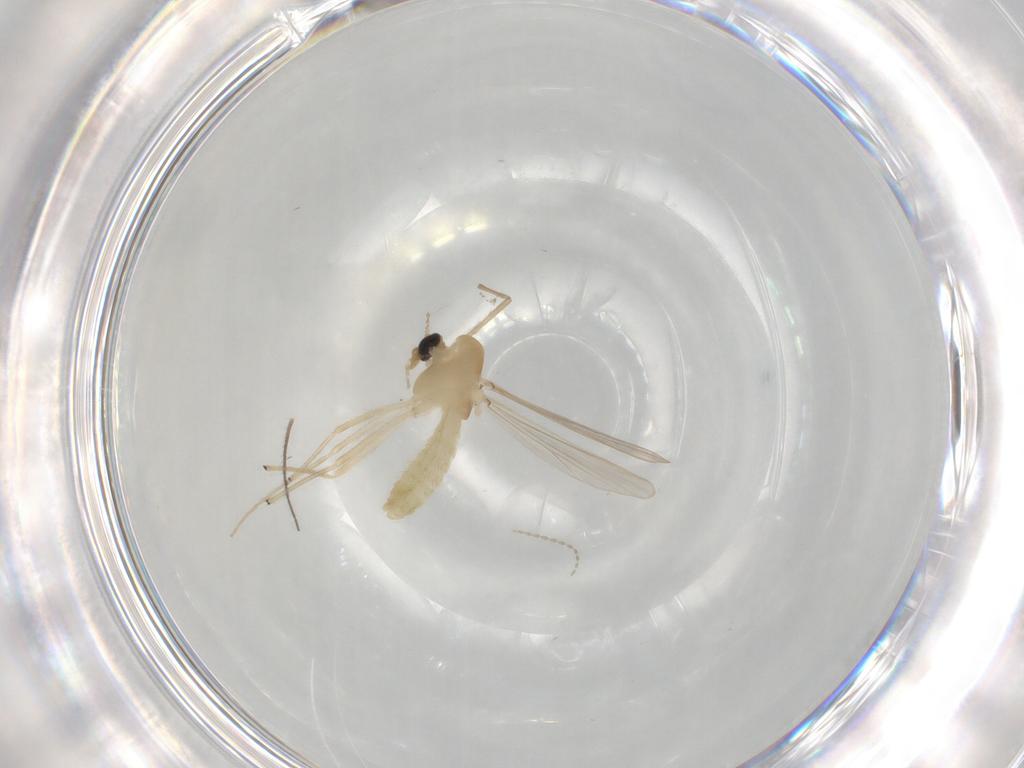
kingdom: Animalia
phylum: Arthropoda
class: Insecta
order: Diptera
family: Chironomidae
